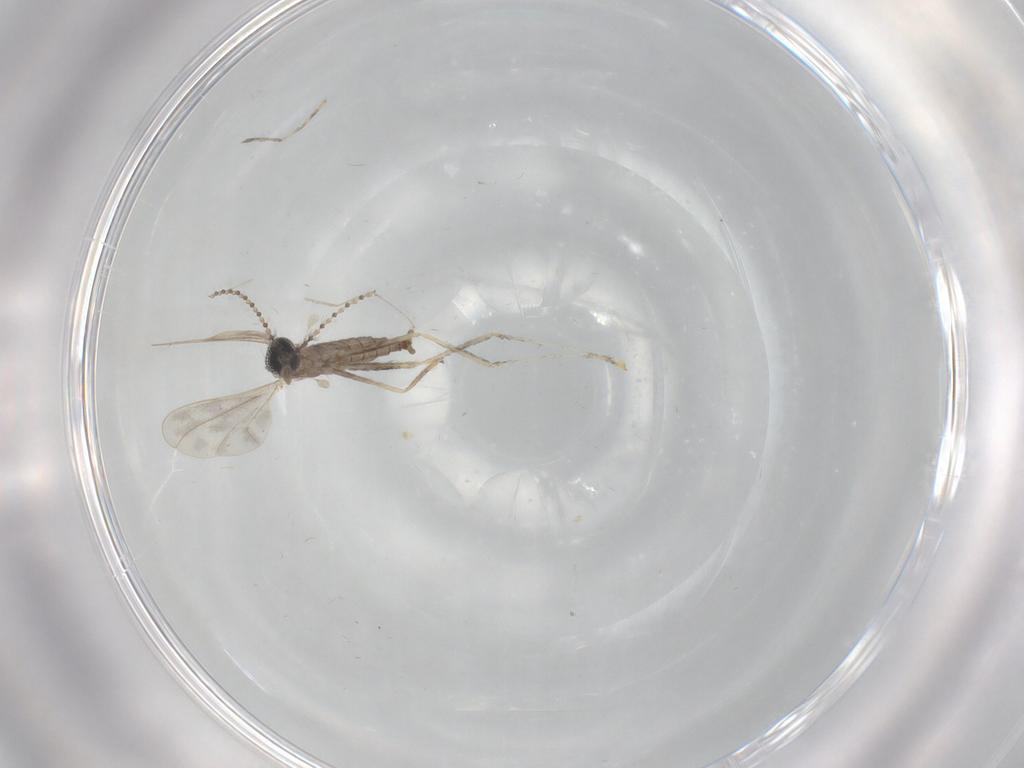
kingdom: Animalia
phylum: Arthropoda
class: Insecta
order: Diptera
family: Cecidomyiidae
